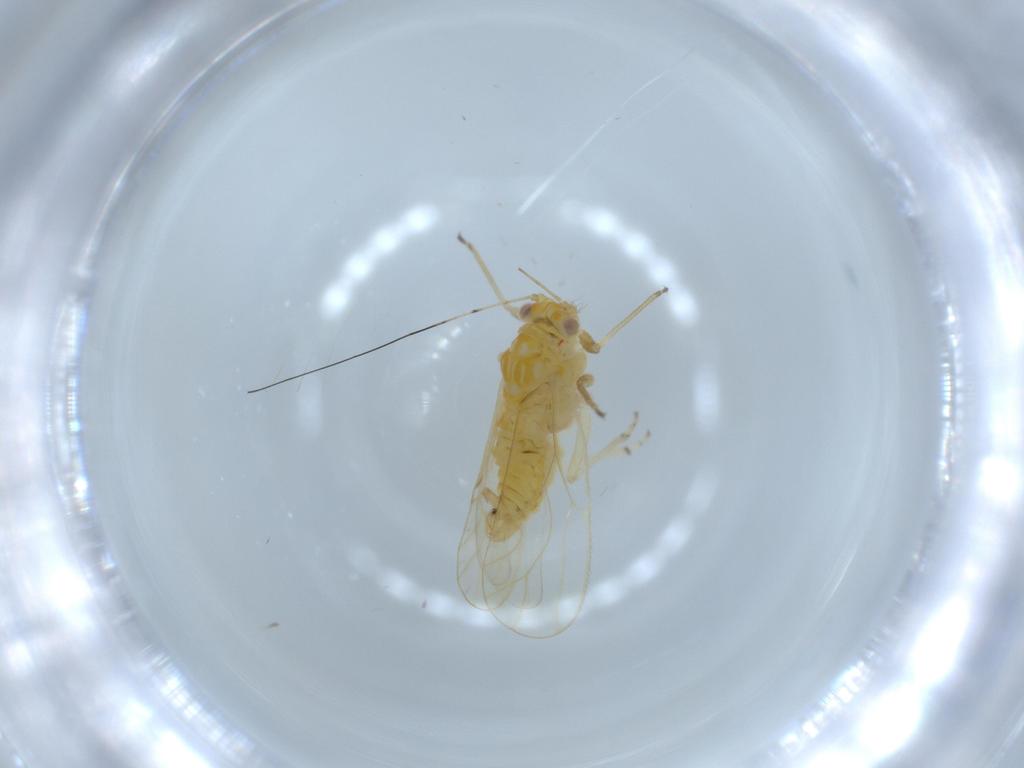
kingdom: Animalia
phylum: Arthropoda
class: Insecta
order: Hemiptera
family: Psyllidae
